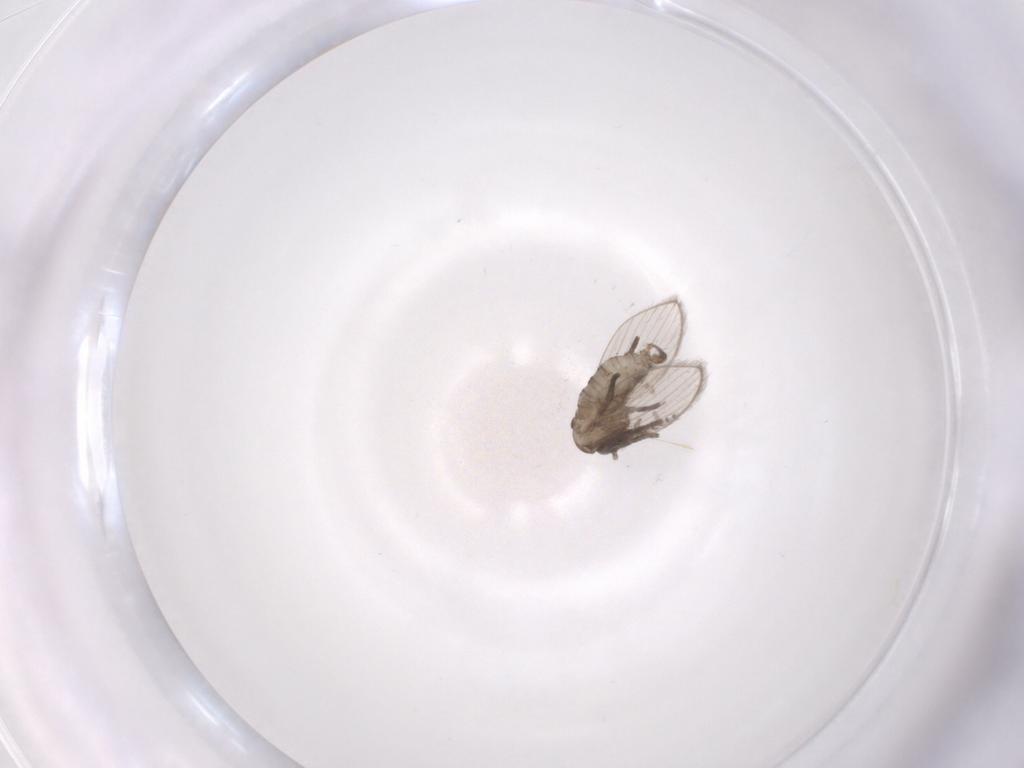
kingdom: Animalia
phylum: Arthropoda
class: Insecta
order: Diptera
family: Psychodidae
